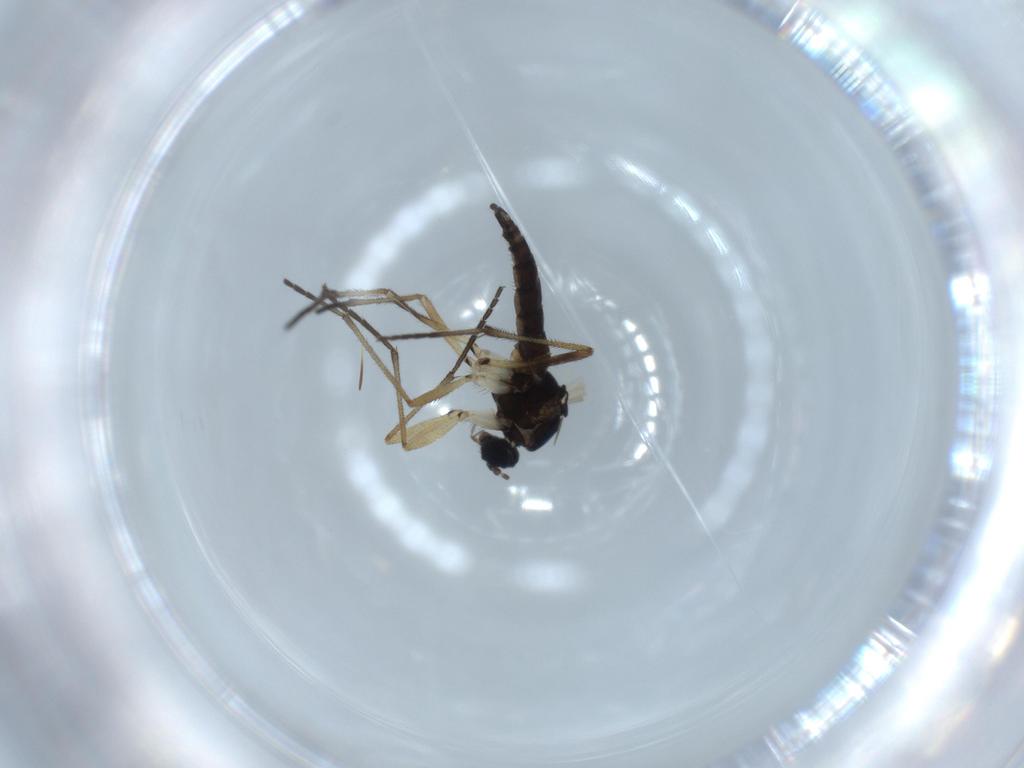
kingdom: Animalia
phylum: Arthropoda
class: Insecta
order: Diptera
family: Sciaridae
